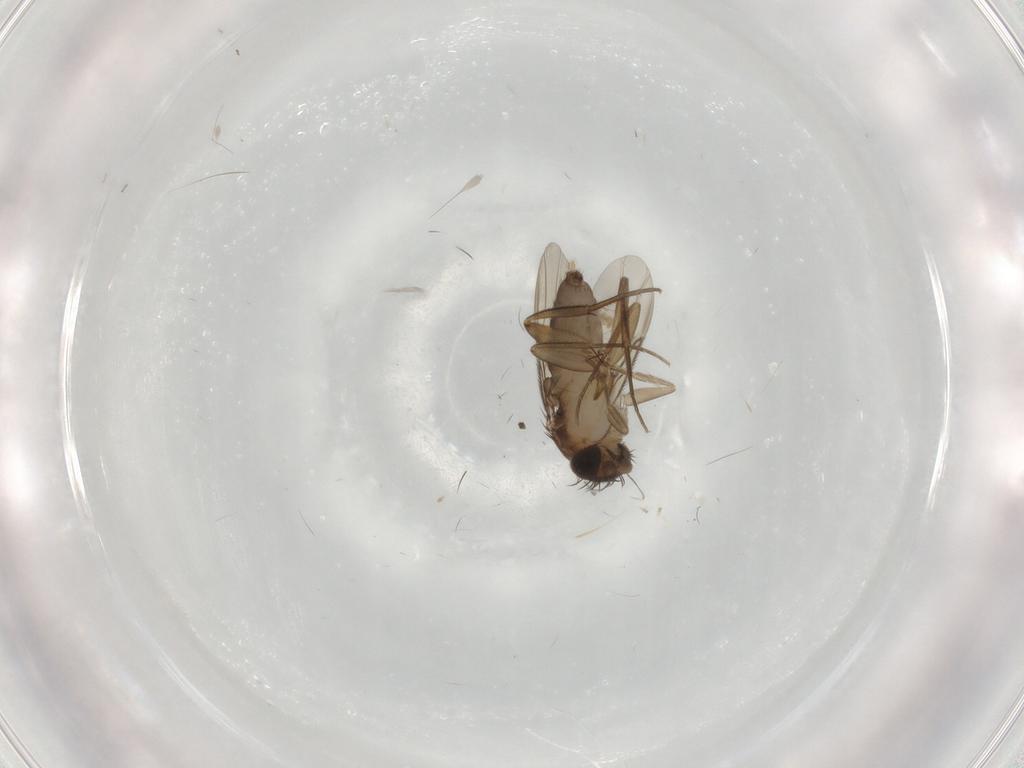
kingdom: Animalia
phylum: Arthropoda
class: Insecta
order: Diptera
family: Phoridae
